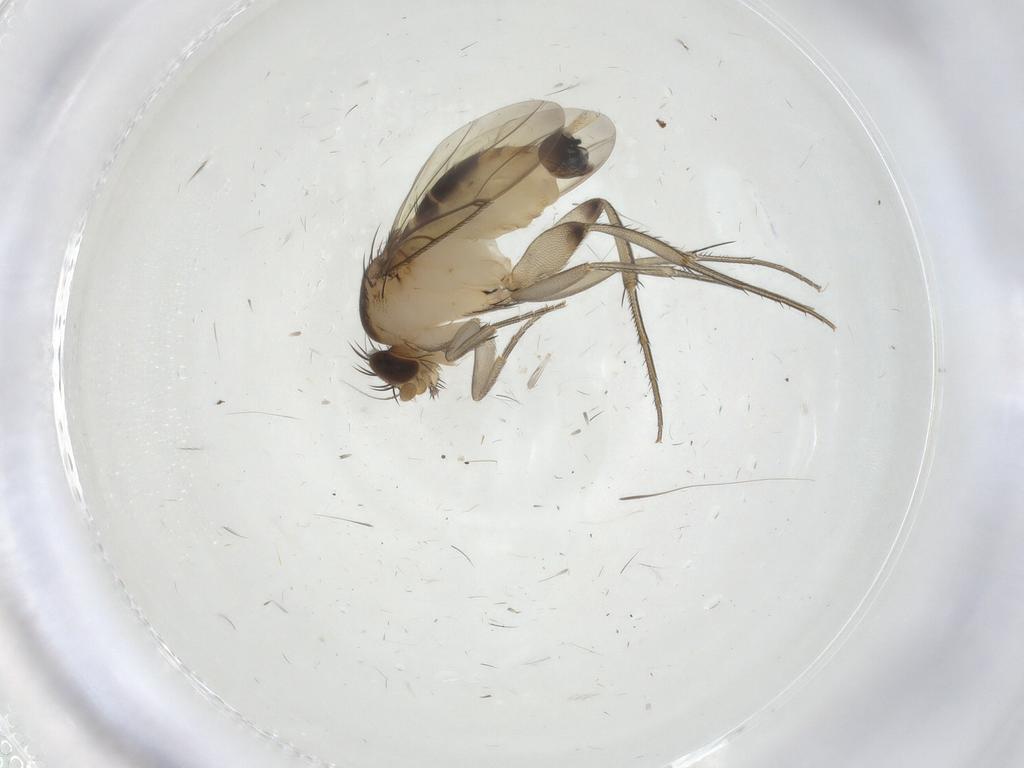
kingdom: Animalia
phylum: Arthropoda
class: Insecta
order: Diptera
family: Phoridae
